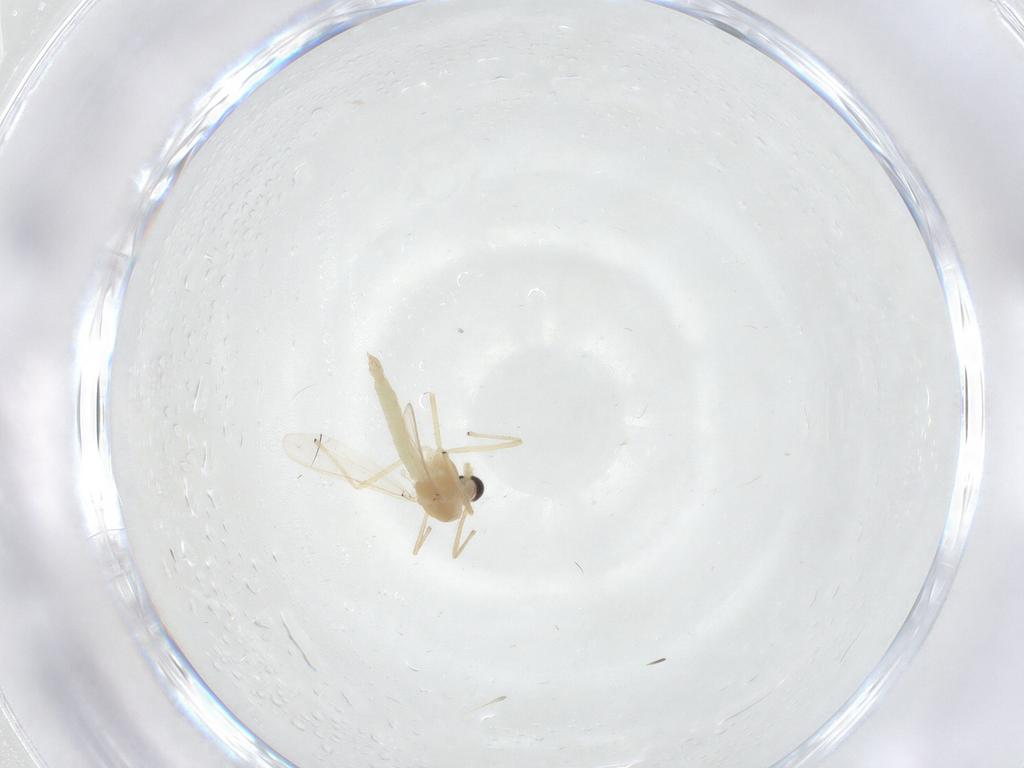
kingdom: Animalia
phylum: Arthropoda
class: Insecta
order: Diptera
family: Chironomidae
